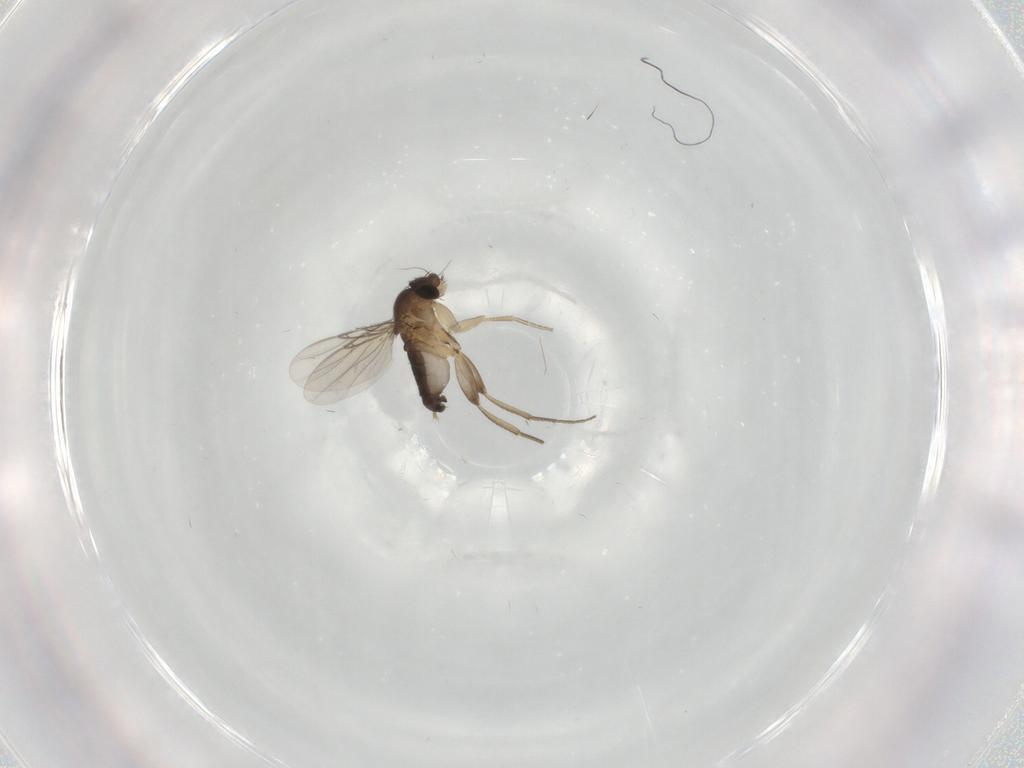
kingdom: Animalia
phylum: Arthropoda
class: Insecta
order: Diptera
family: Phoridae
